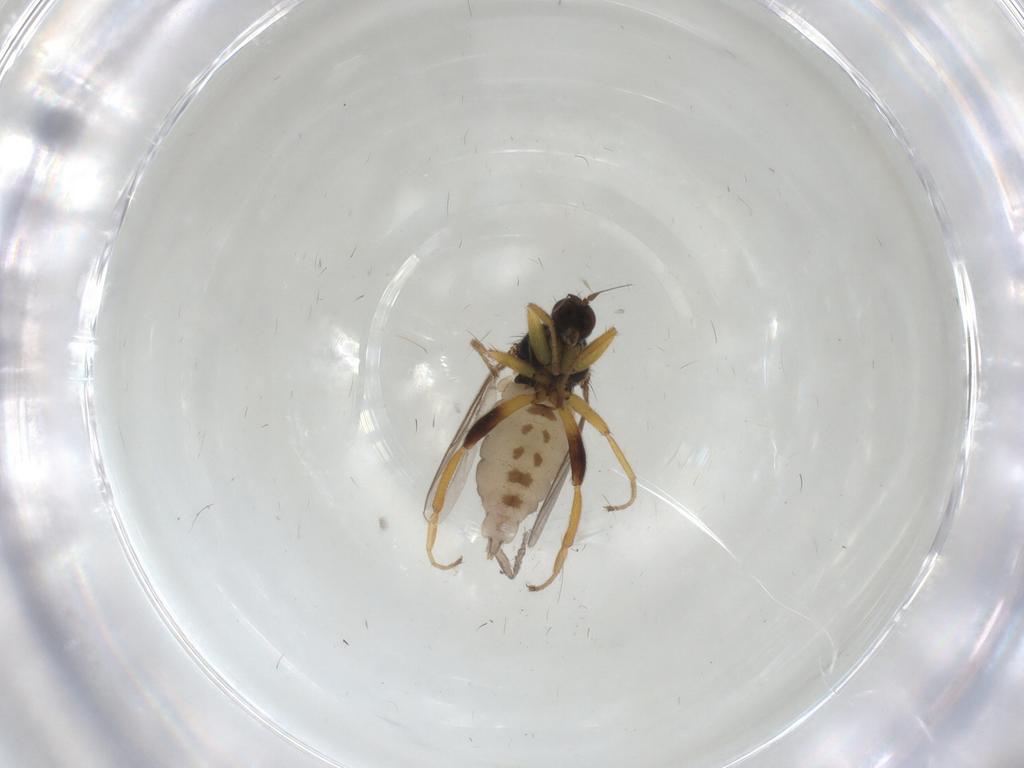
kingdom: Animalia
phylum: Arthropoda
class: Insecta
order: Diptera
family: Hybotidae
